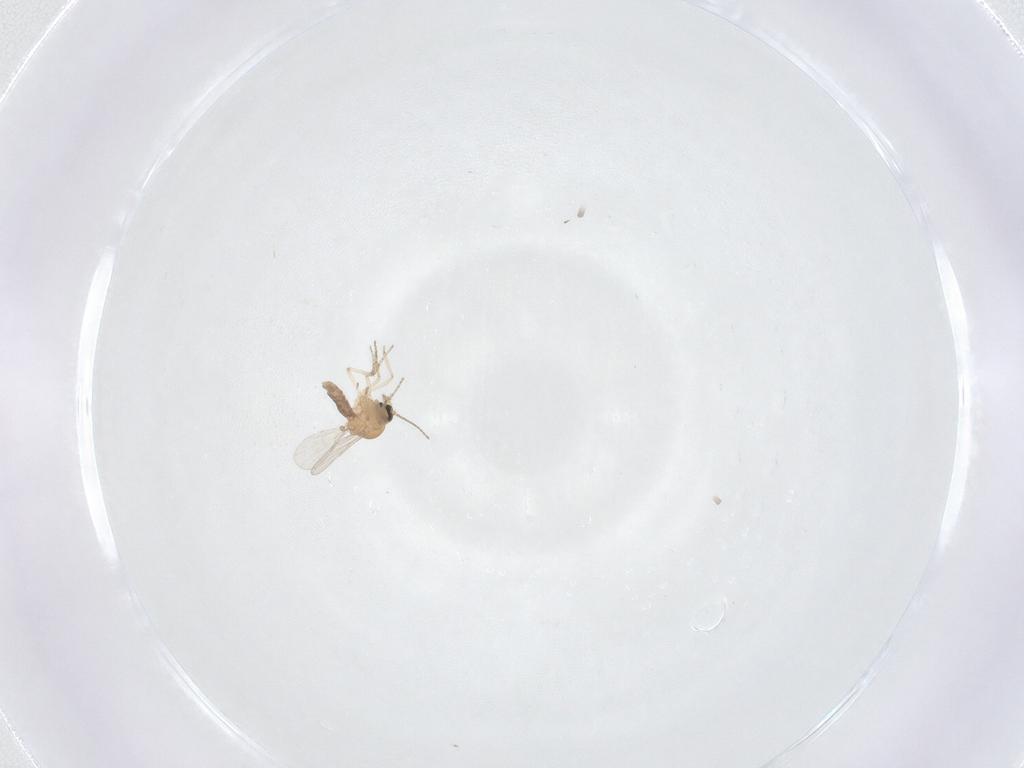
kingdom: Animalia
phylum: Arthropoda
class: Insecta
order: Diptera
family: Ceratopogonidae
